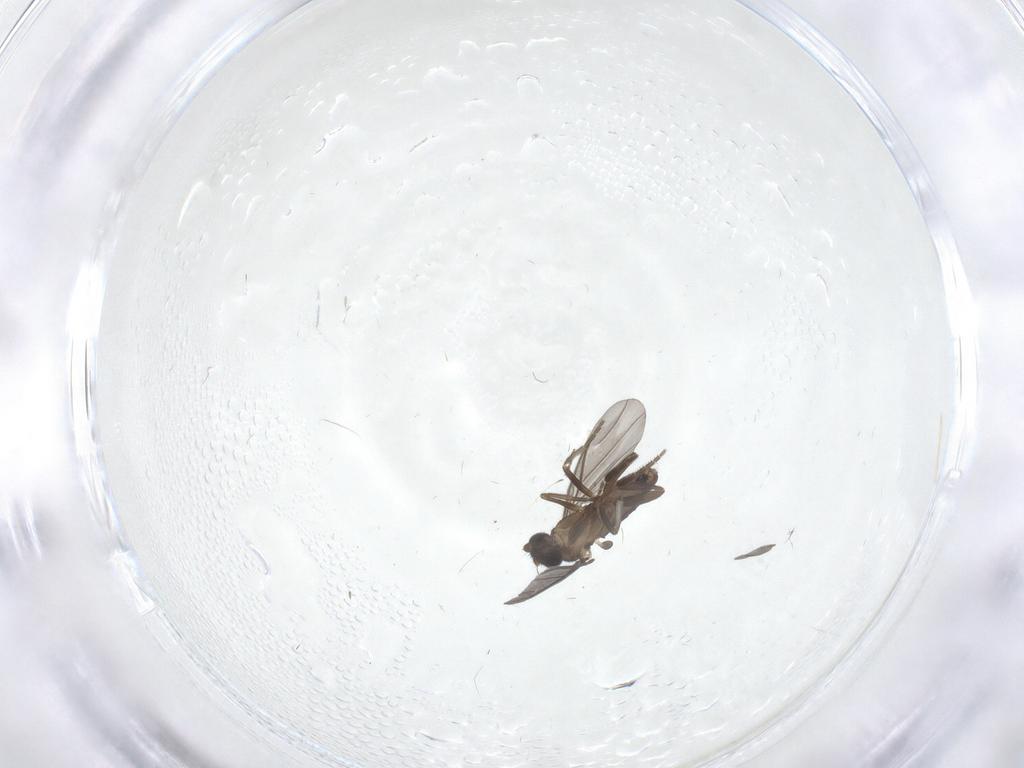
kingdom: Animalia
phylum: Arthropoda
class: Insecta
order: Diptera
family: Phoridae
